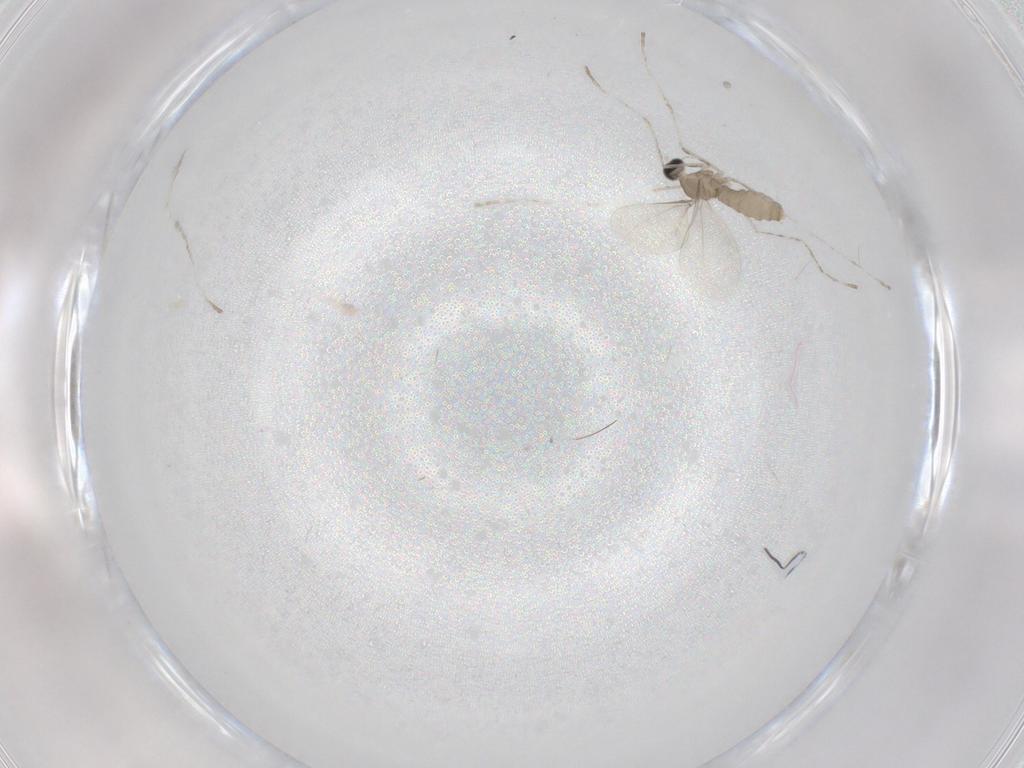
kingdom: Animalia
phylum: Arthropoda
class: Insecta
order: Diptera
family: Cecidomyiidae
